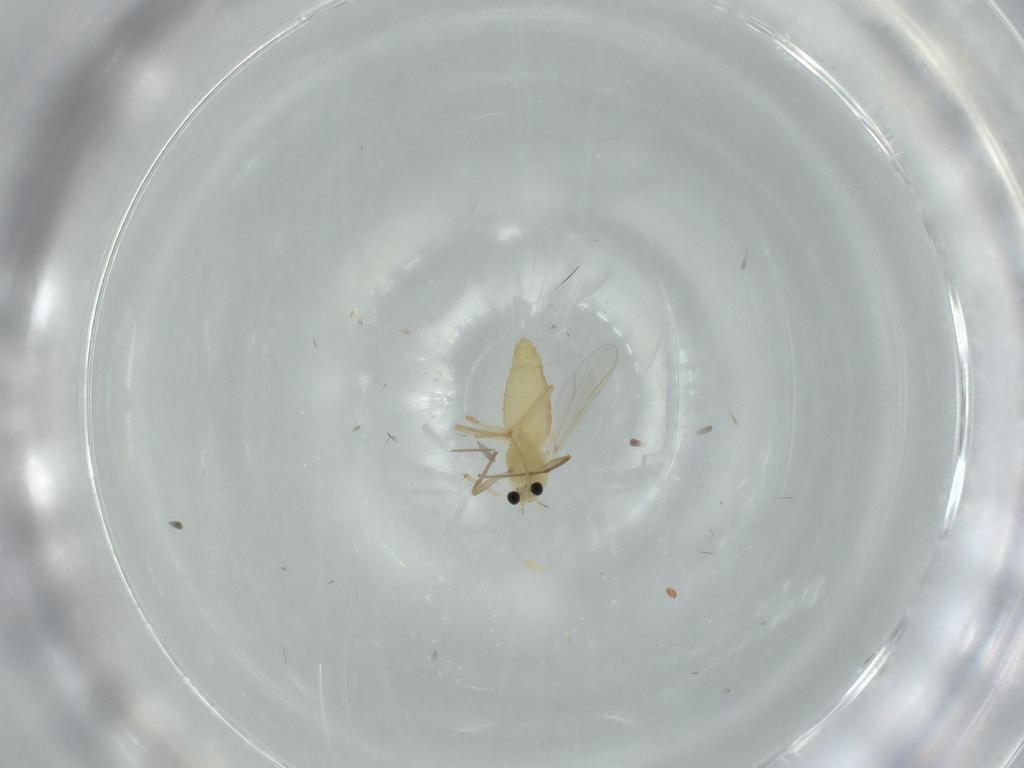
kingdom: Animalia
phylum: Arthropoda
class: Insecta
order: Diptera
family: Chironomidae
